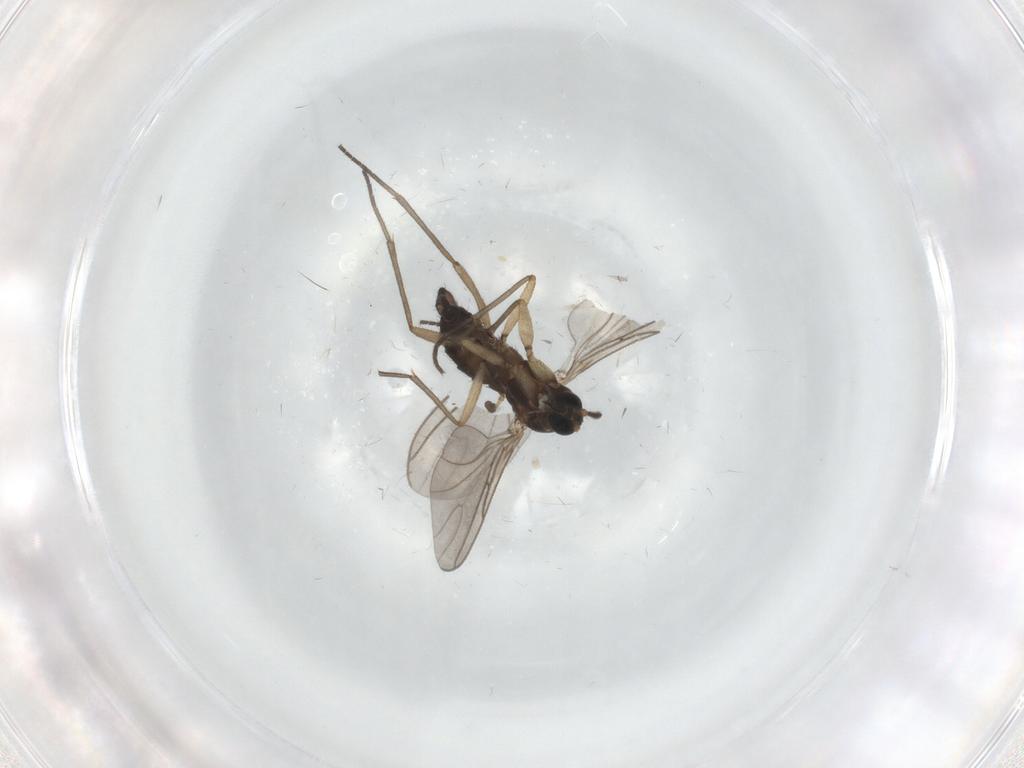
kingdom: Animalia
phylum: Arthropoda
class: Insecta
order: Diptera
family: Sciaridae
